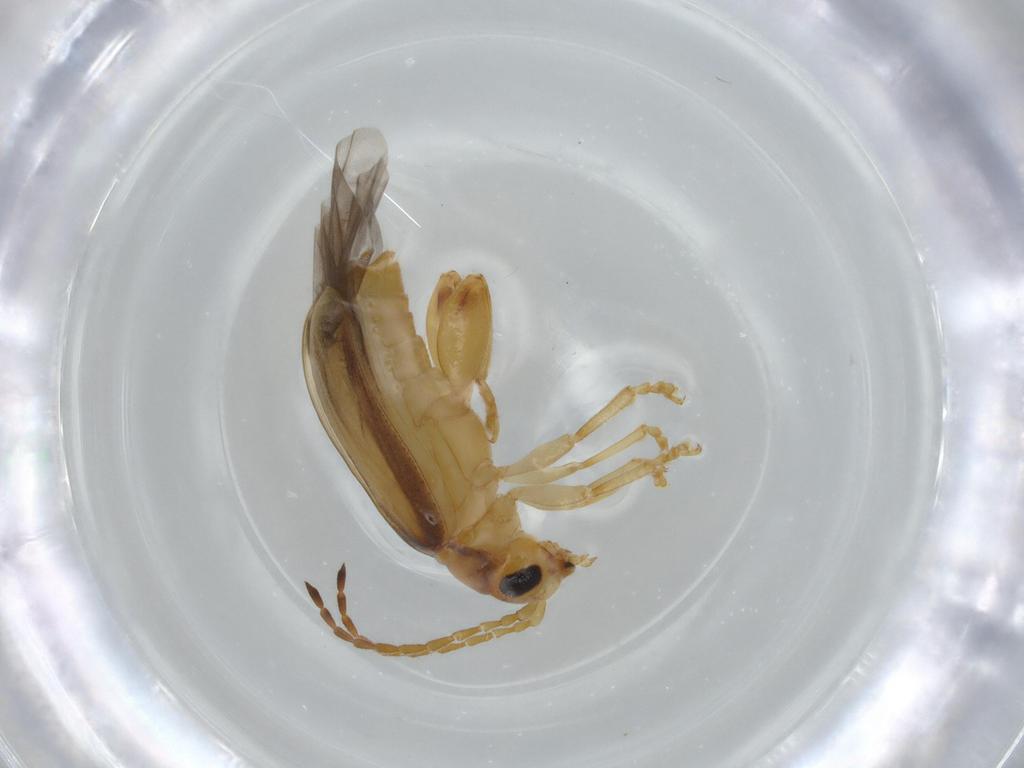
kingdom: Animalia
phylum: Arthropoda
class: Insecta
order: Coleoptera
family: Chrysomelidae
